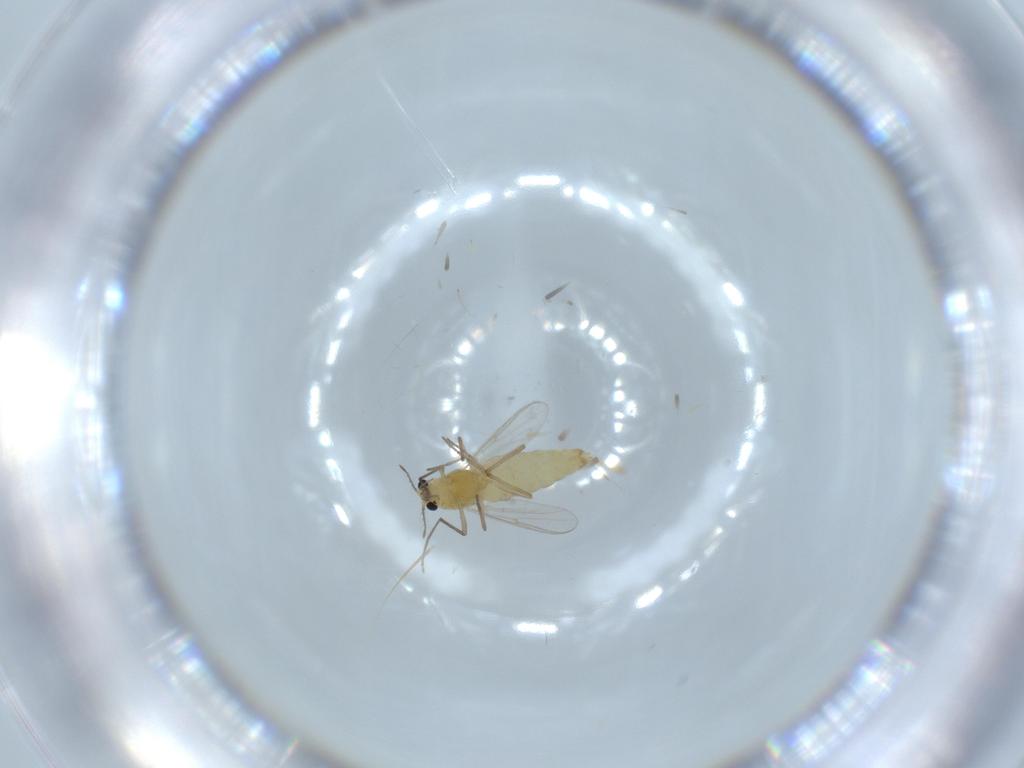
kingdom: Animalia
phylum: Arthropoda
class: Insecta
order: Diptera
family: Chironomidae
